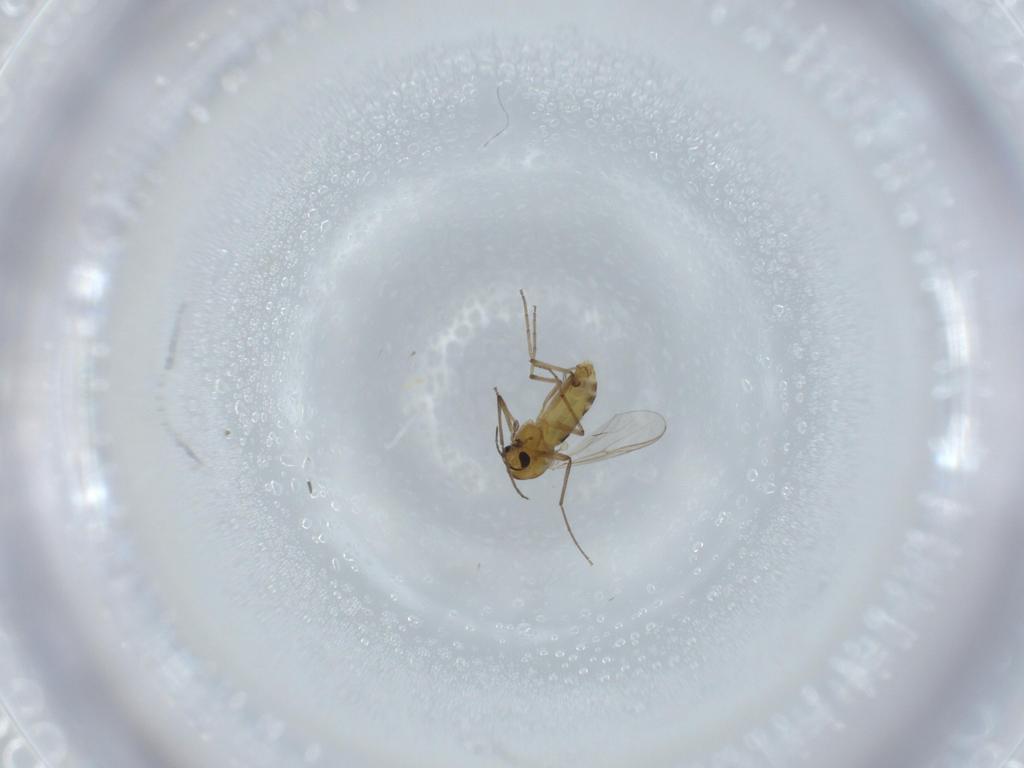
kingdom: Animalia
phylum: Arthropoda
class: Insecta
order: Diptera
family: Chironomidae
